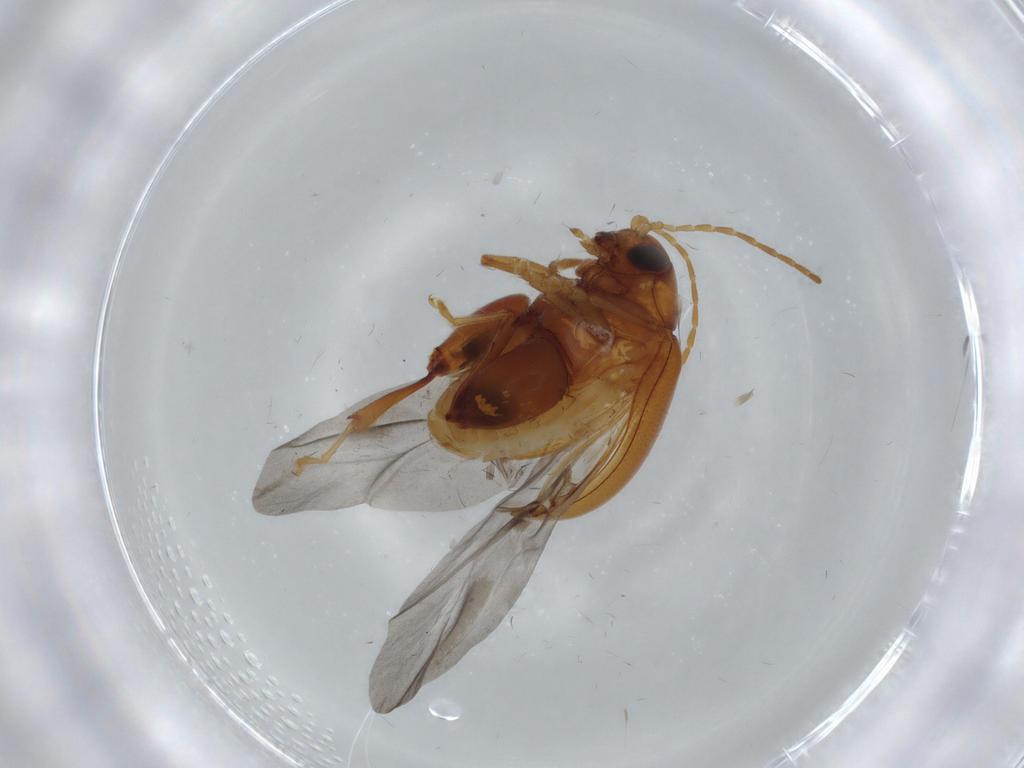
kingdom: Animalia
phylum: Arthropoda
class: Insecta
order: Coleoptera
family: Chrysomelidae
